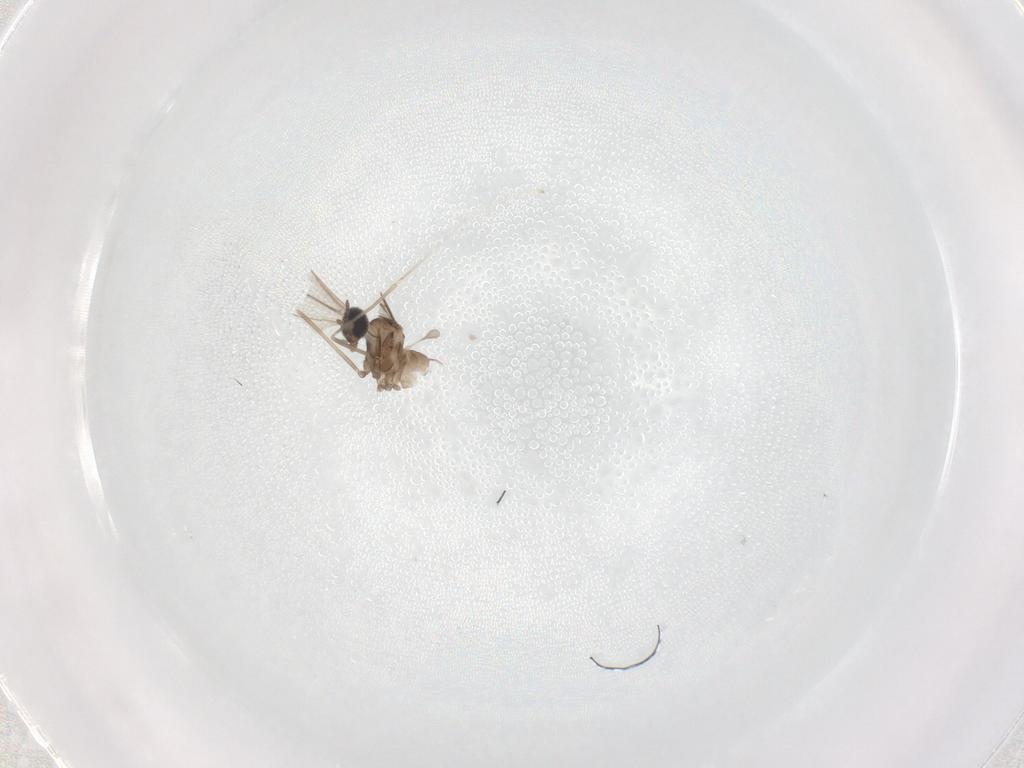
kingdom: Animalia
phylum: Arthropoda
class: Insecta
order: Diptera
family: Cecidomyiidae
